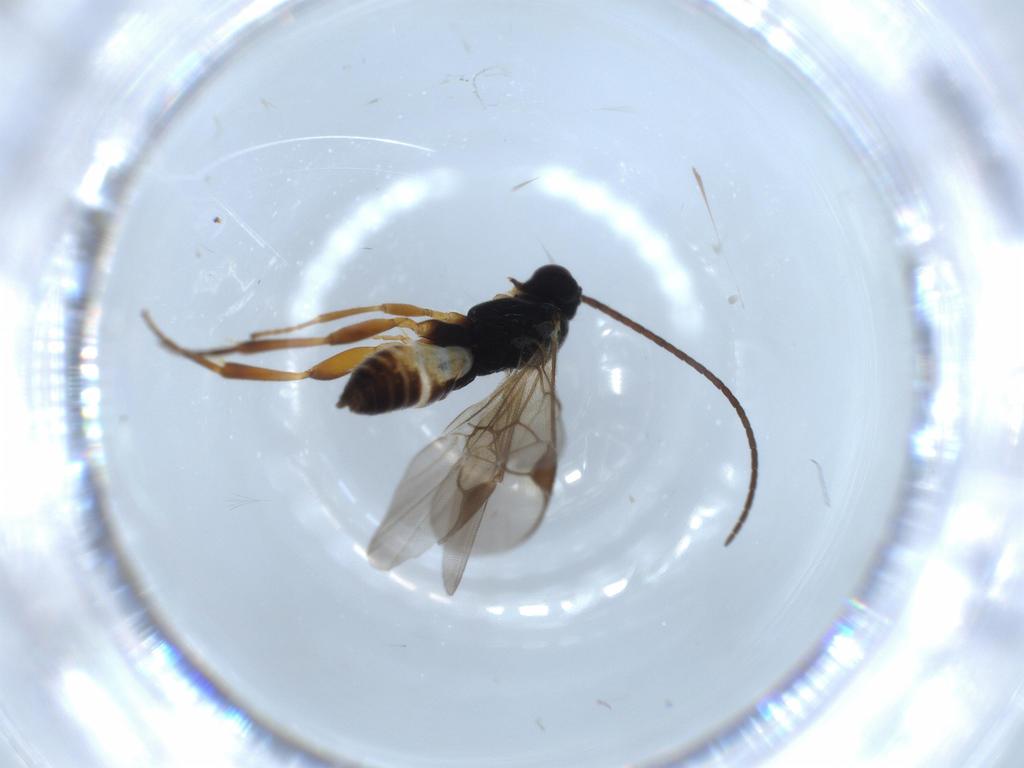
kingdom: Animalia
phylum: Arthropoda
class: Insecta
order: Hymenoptera
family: Braconidae
